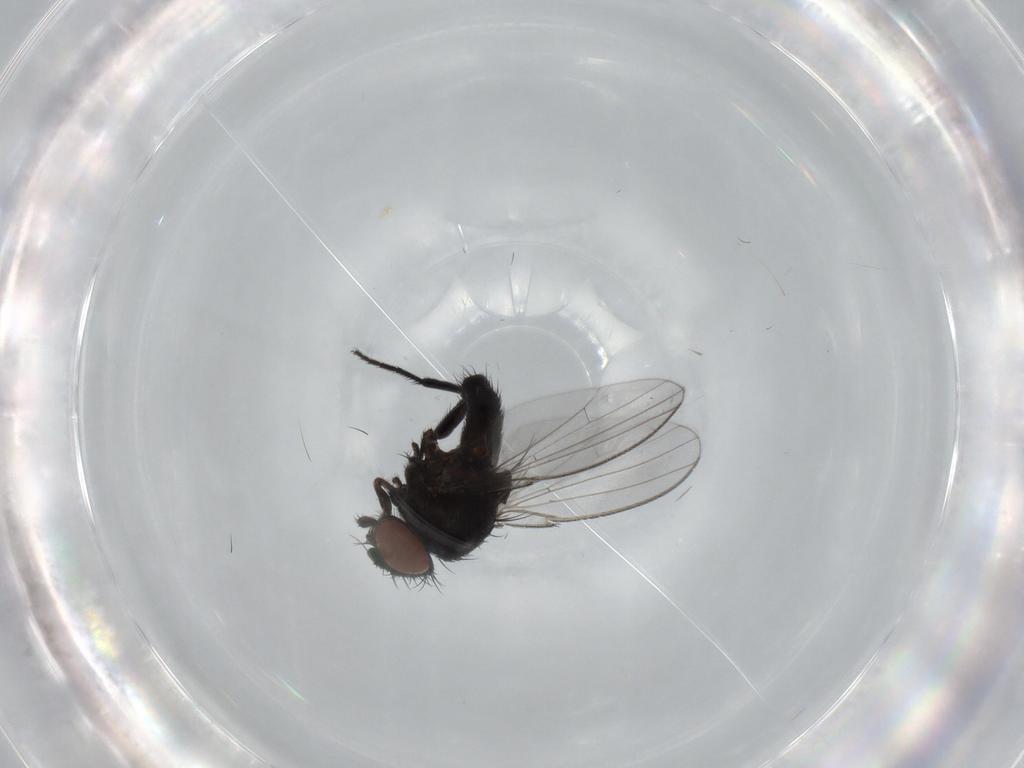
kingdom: Animalia
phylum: Arthropoda
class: Insecta
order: Diptera
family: Milichiidae
